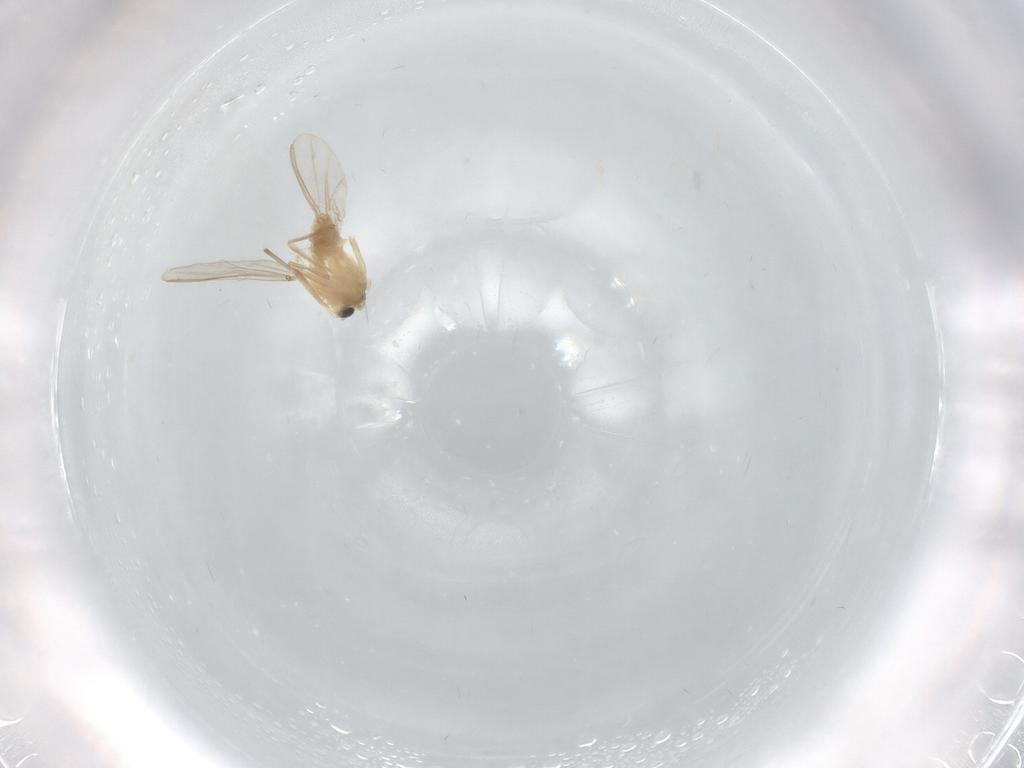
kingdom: Animalia
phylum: Arthropoda
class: Insecta
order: Diptera
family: Chironomidae
